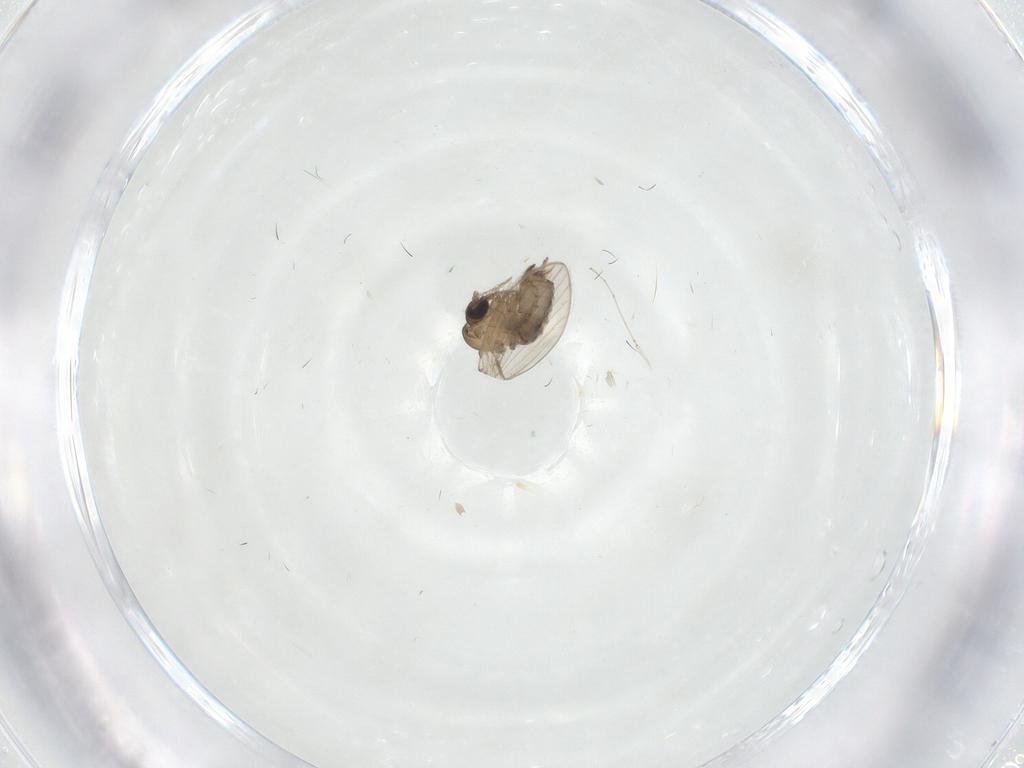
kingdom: Animalia
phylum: Arthropoda
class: Insecta
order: Diptera
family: Psychodidae
